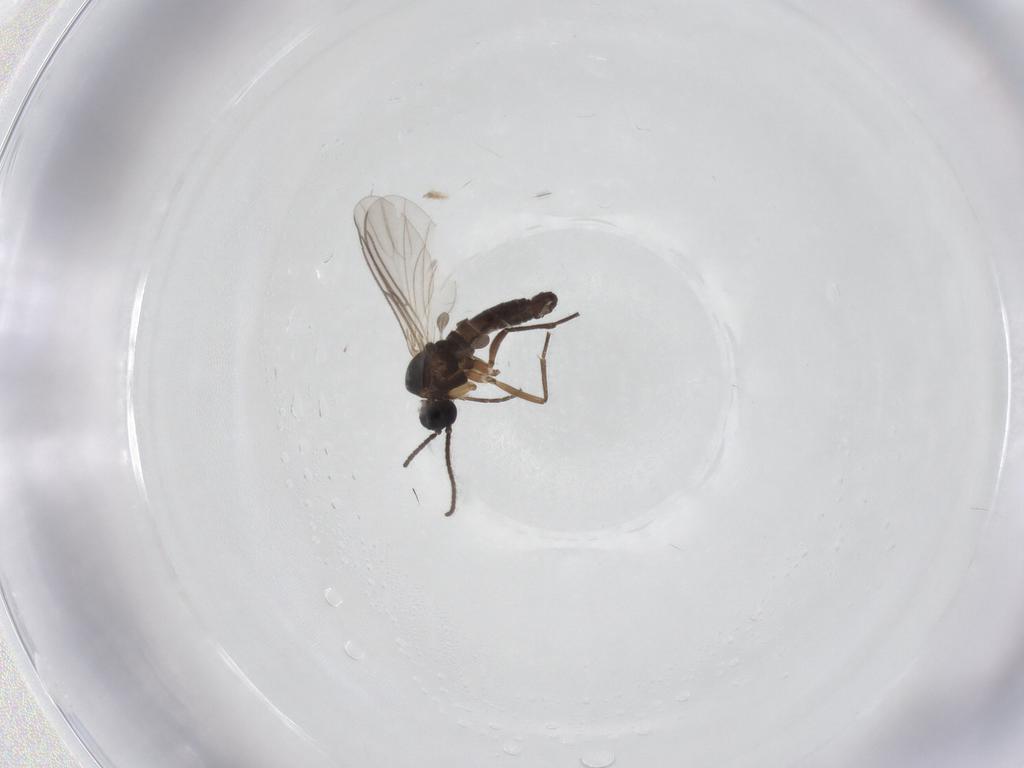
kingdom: Animalia
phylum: Arthropoda
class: Insecta
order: Diptera
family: Sciaridae
